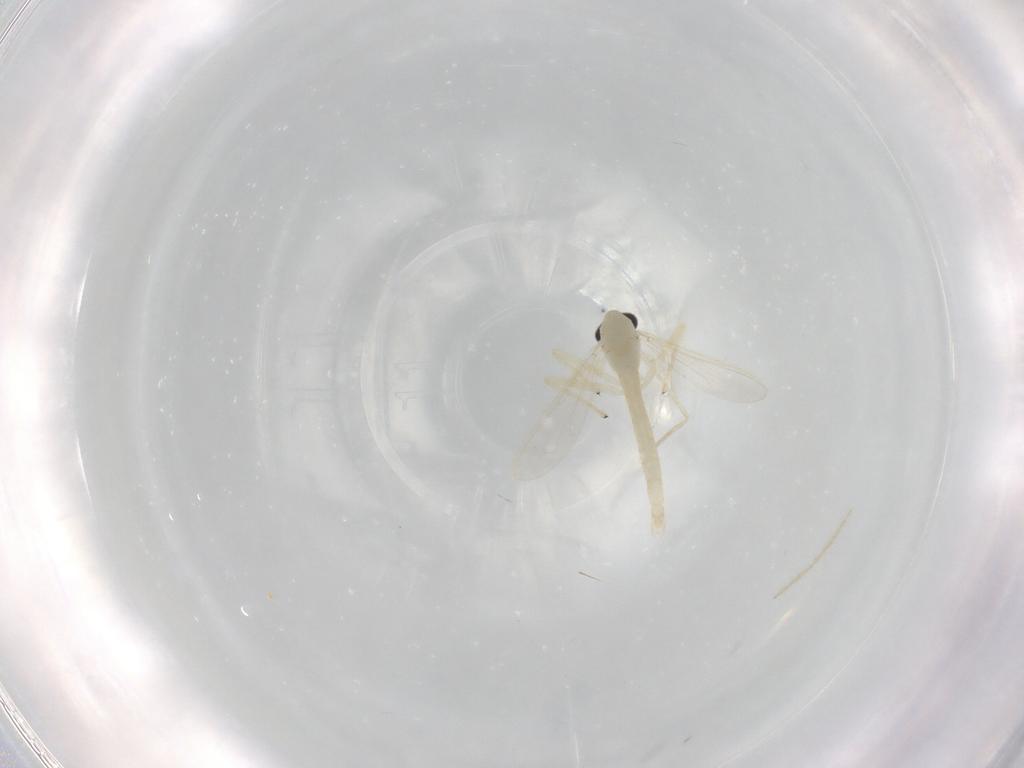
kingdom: Animalia
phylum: Arthropoda
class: Insecta
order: Diptera
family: Chironomidae
